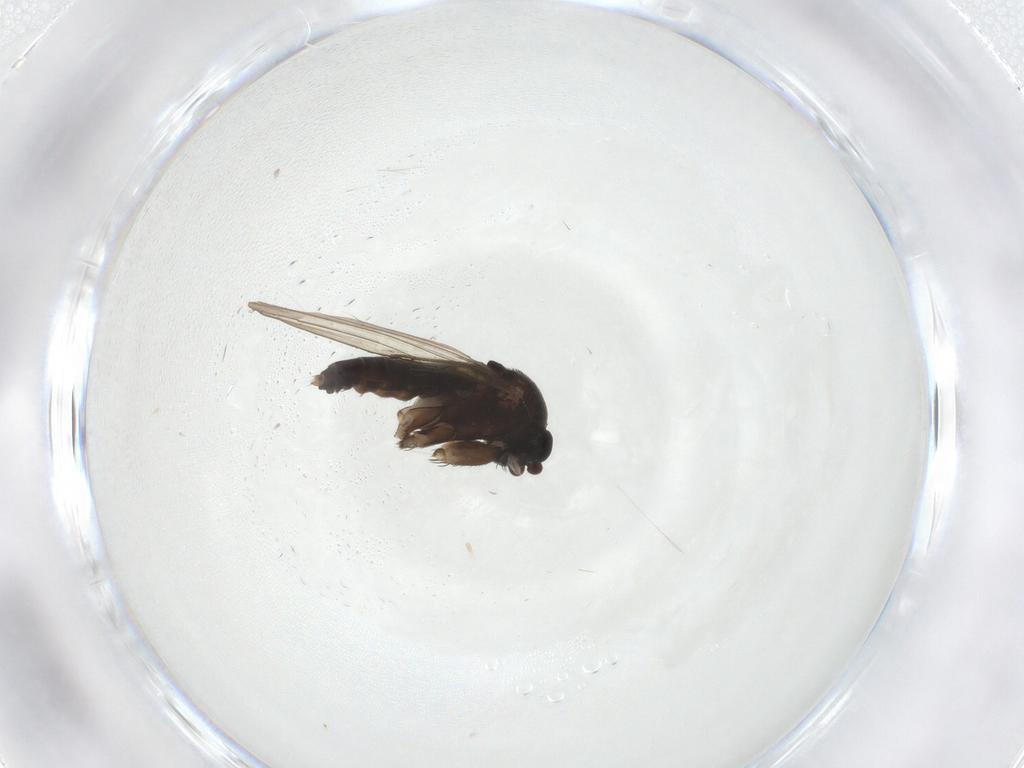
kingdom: Animalia
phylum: Arthropoda
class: Insecta
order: Diptera
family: Phoridae
